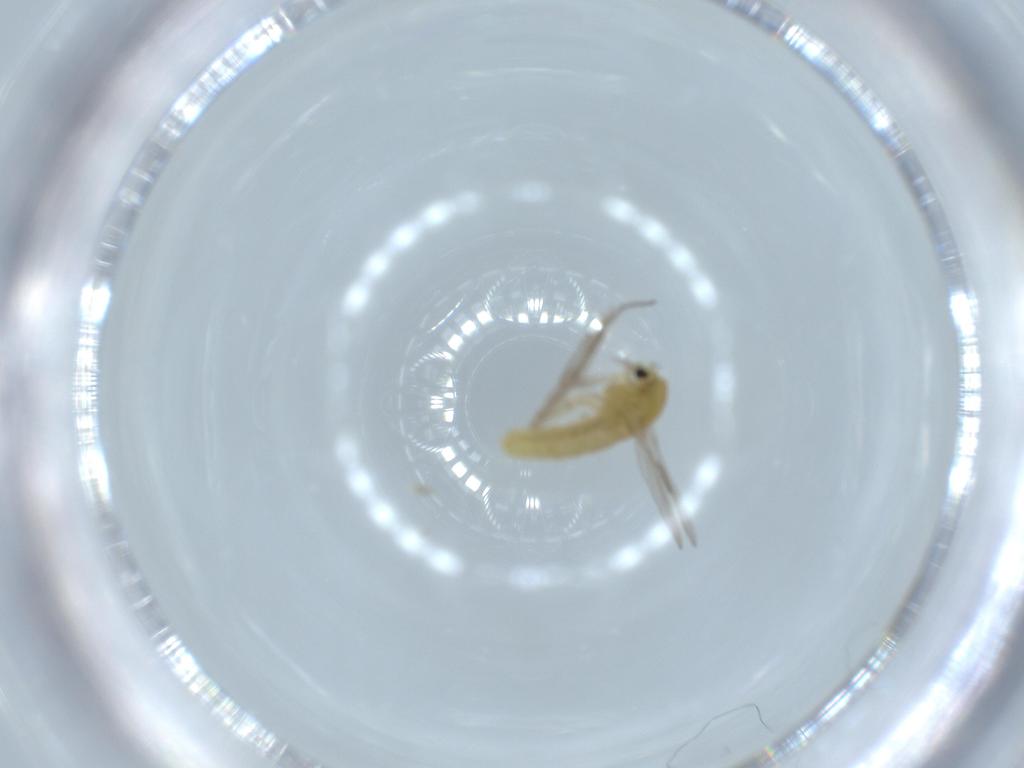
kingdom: Animalia
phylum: Arthropoda
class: Insecta
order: Diptera
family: Chironomidae
